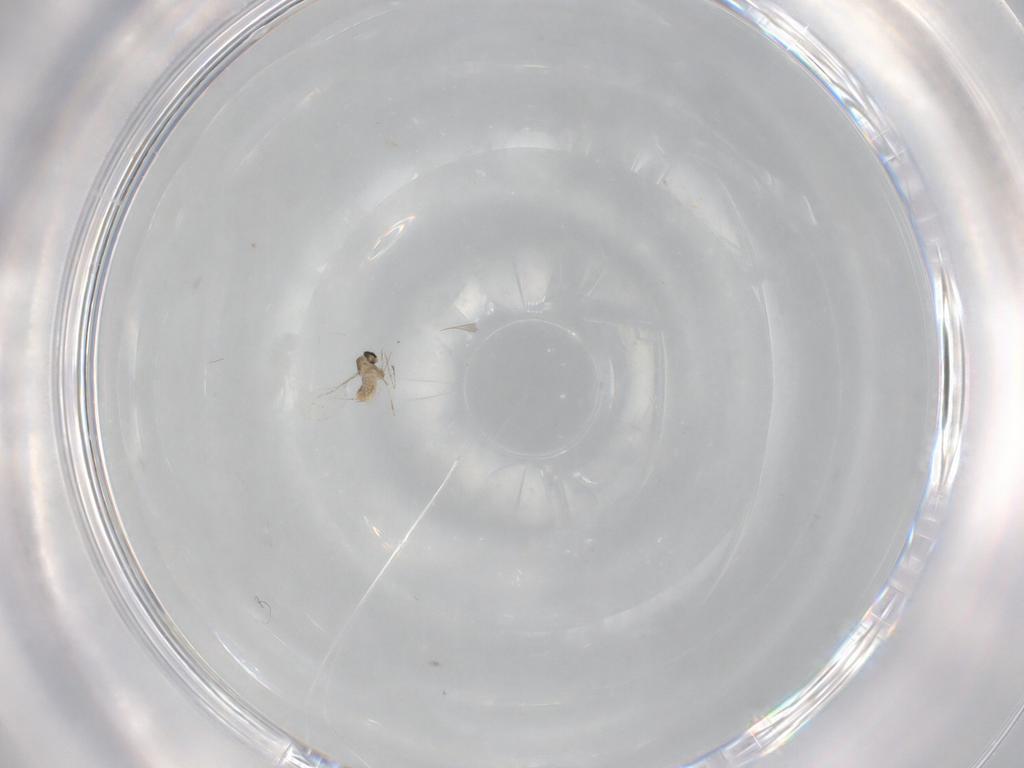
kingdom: Animalia
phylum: Arthropoda
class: Insecta
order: Diptera
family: Cecidomyiidae
